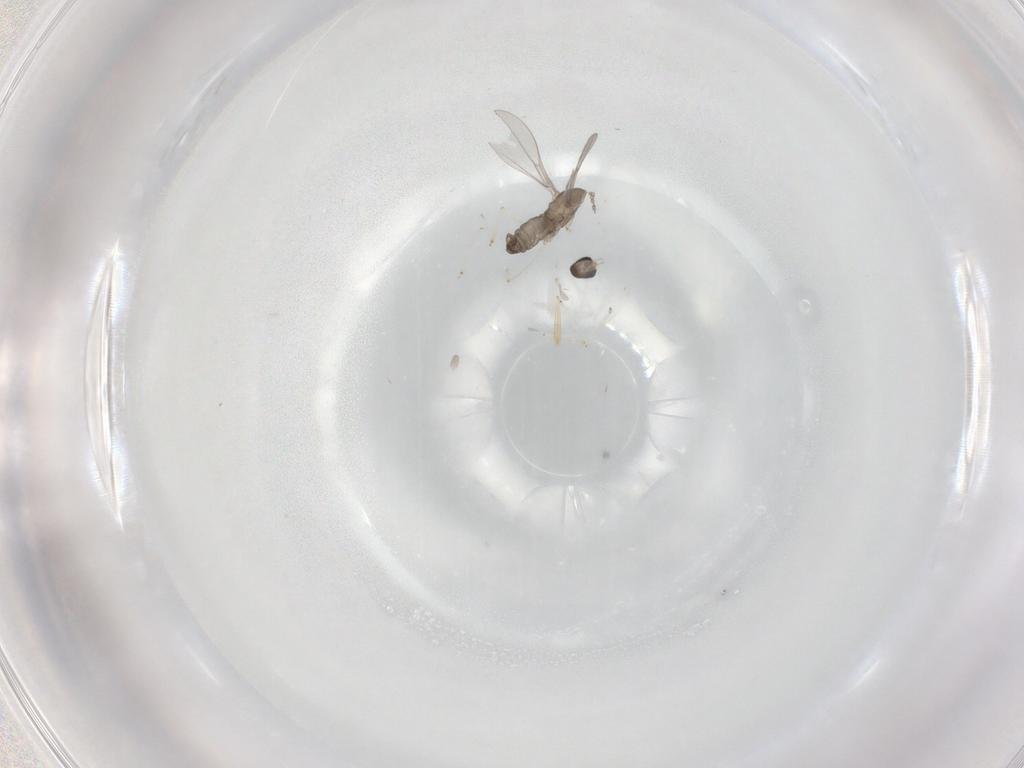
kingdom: Animalia
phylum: Arthropoda
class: Insecta
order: Diptera
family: Cecidomyiidae
